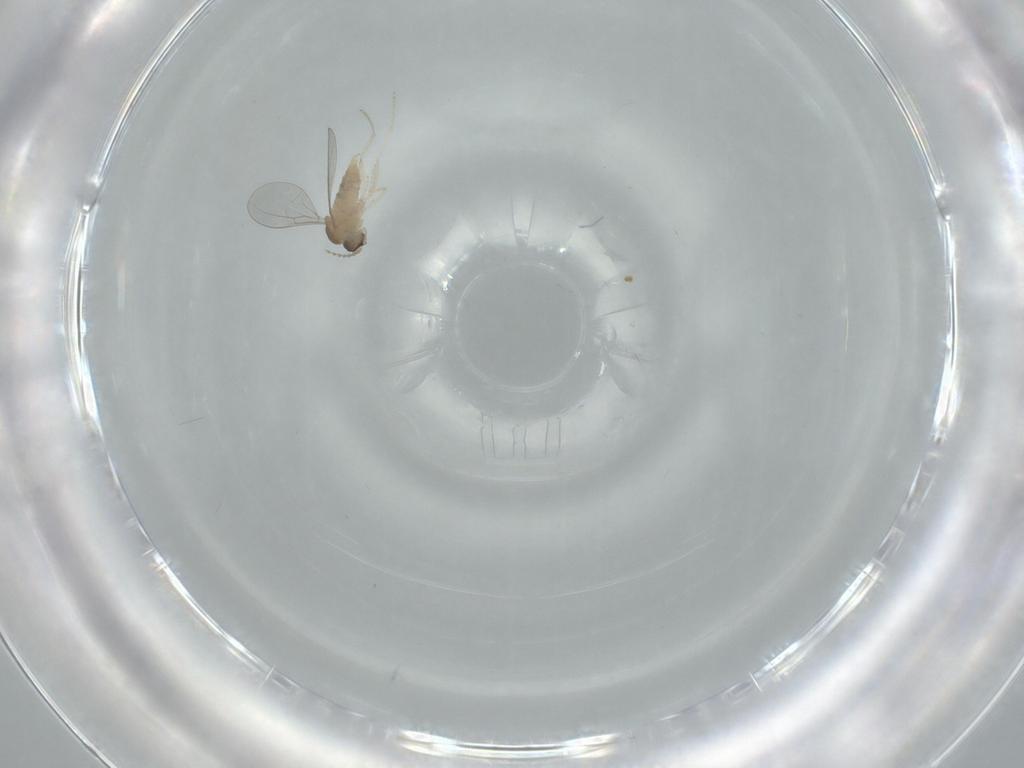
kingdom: Animalia
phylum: Arthropoda
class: Insecta
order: Diptera
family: Cecidomyiidae
